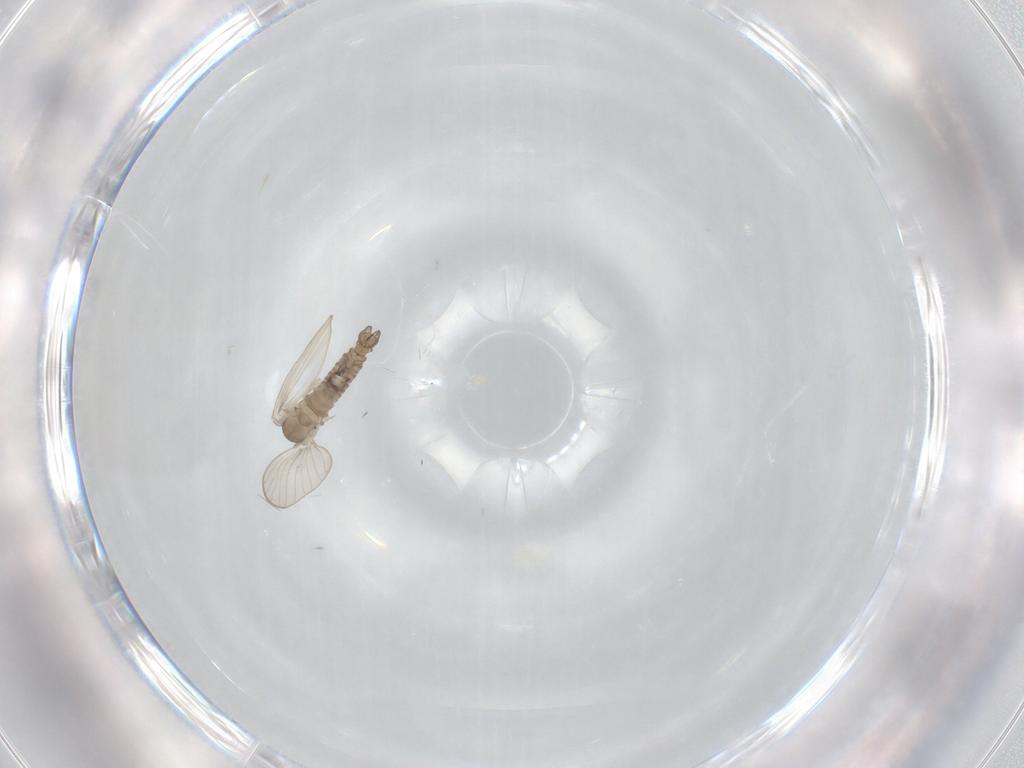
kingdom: Animalia
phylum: Arthropoda
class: Insecta
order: Diptera
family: Psychodidae
